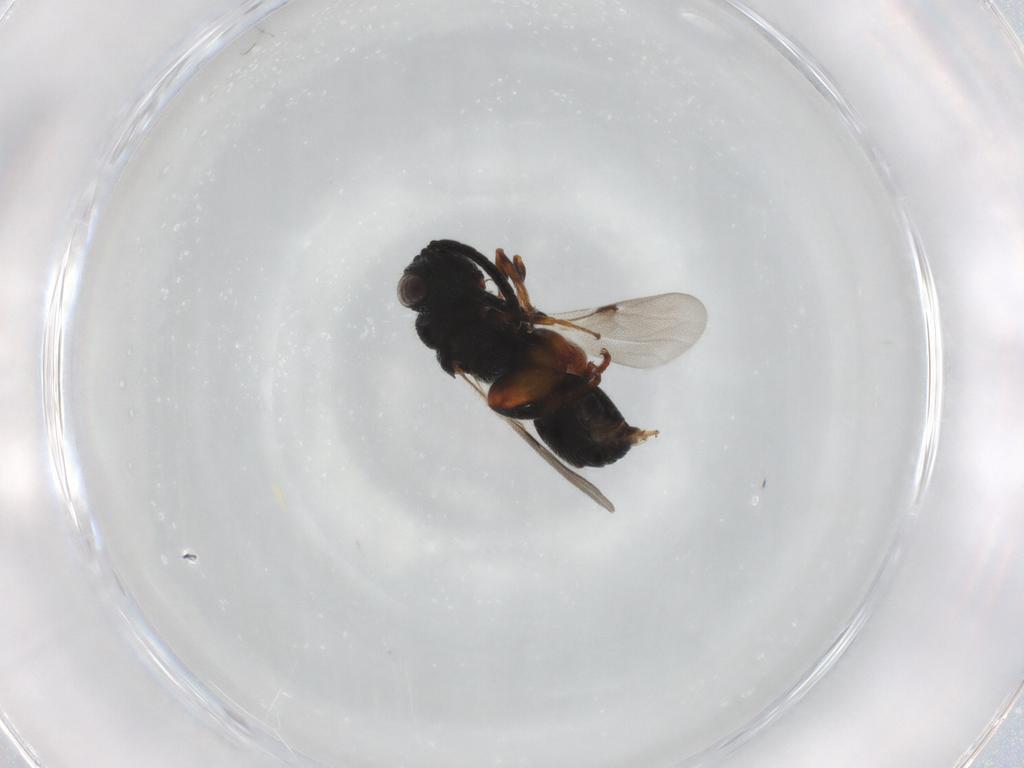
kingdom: Animalia
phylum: Arthropoda
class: Insecta
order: Hymenoptera
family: Chalcididae
